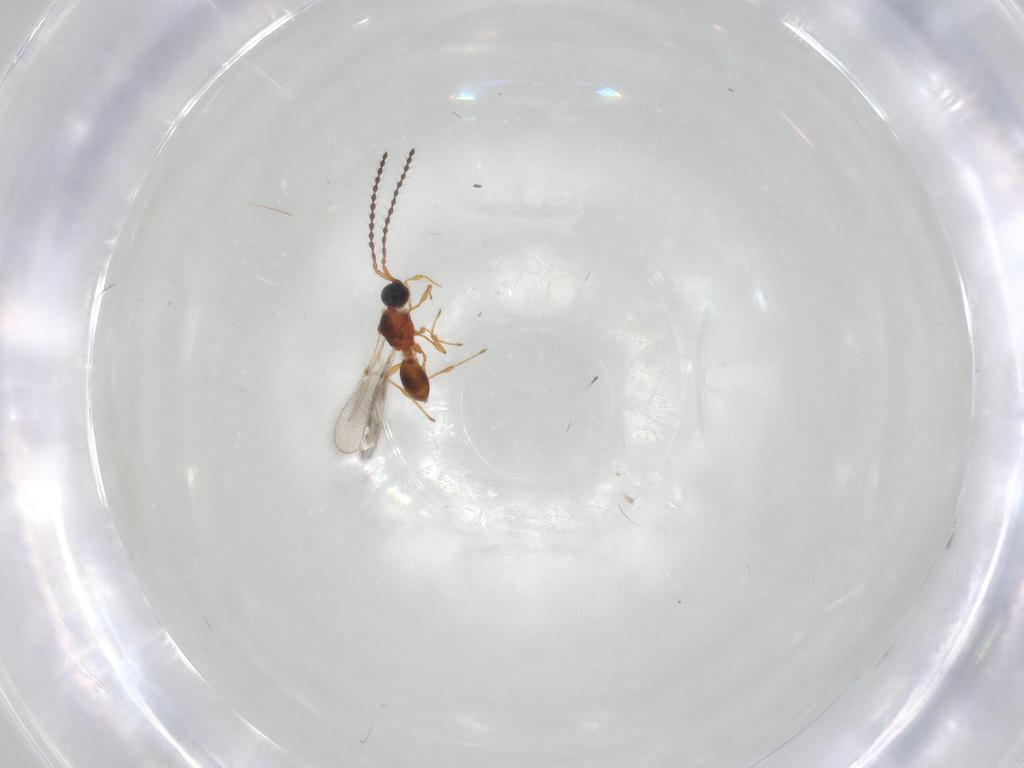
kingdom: Animalia
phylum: Arthropoda
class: Insecta
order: Hymenoptera
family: Diapriidae
